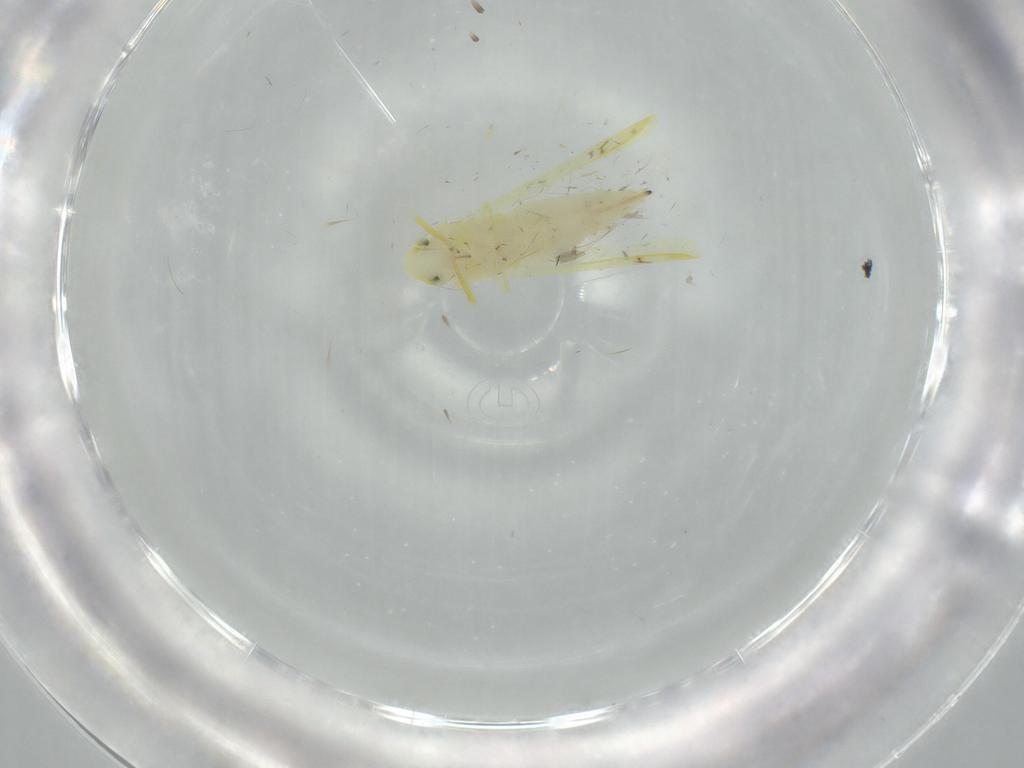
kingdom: Animalia
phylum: Arthropoda
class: Insecta
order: Hemiptera
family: Cicadellidae
